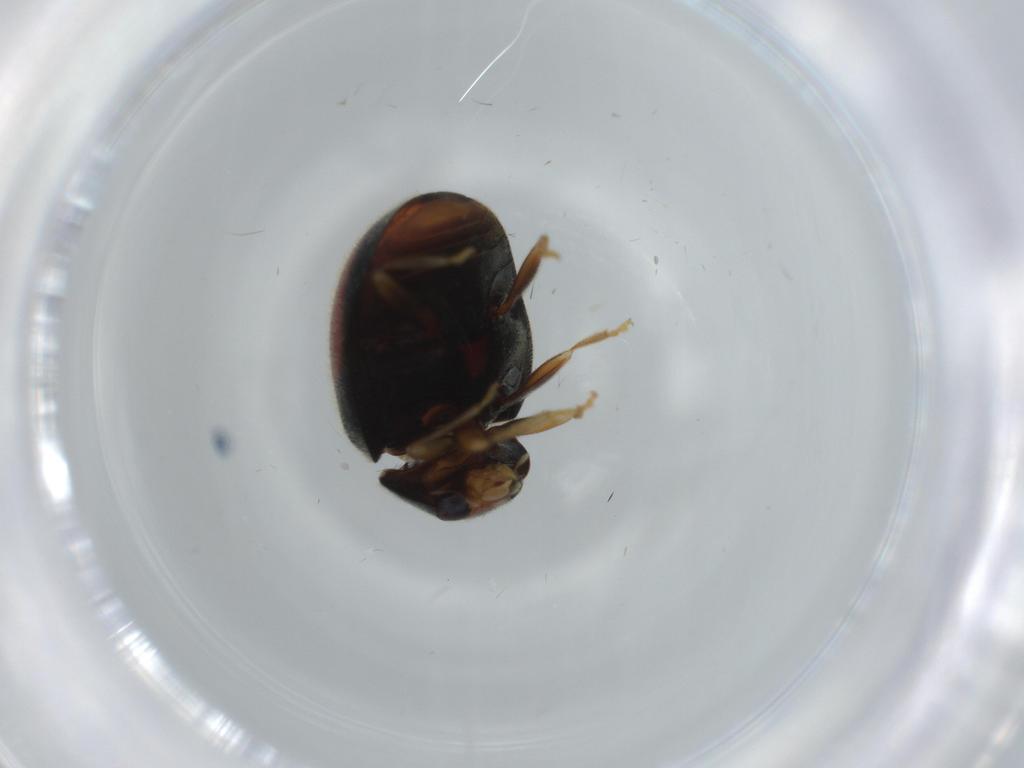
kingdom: Animalia
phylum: Arthropoda
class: Insecta
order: Coleoptera
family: Coccinellidae
